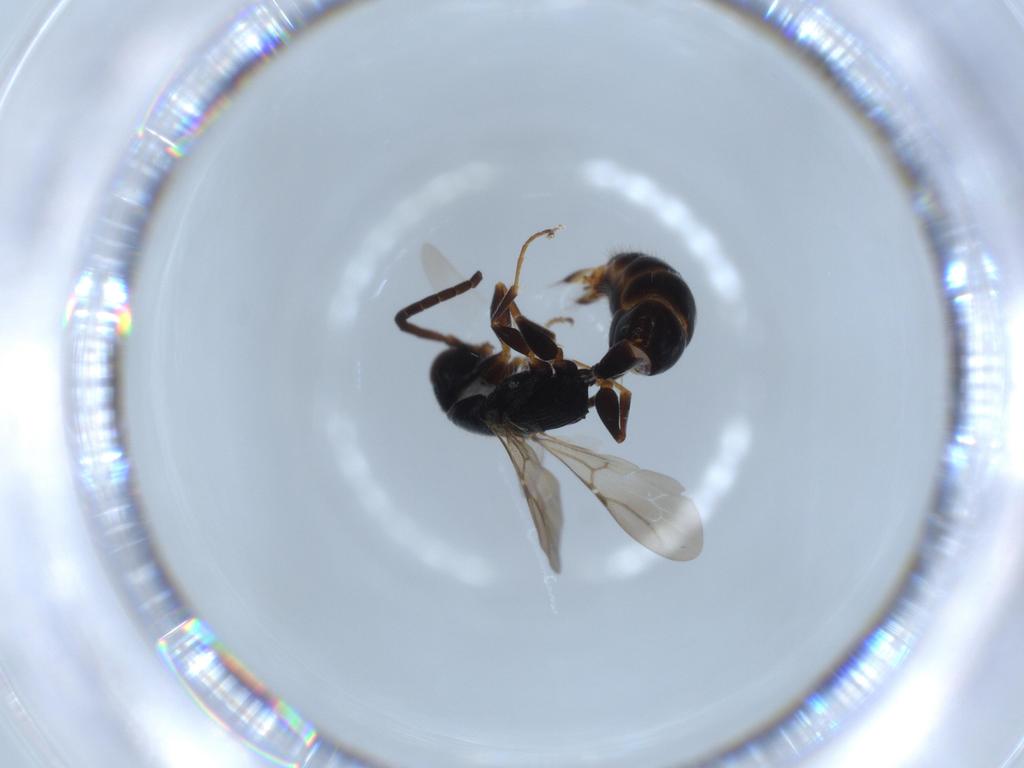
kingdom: Animalia
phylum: Arthropoda
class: Insecta
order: Hymenoptera
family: Bethylidae
